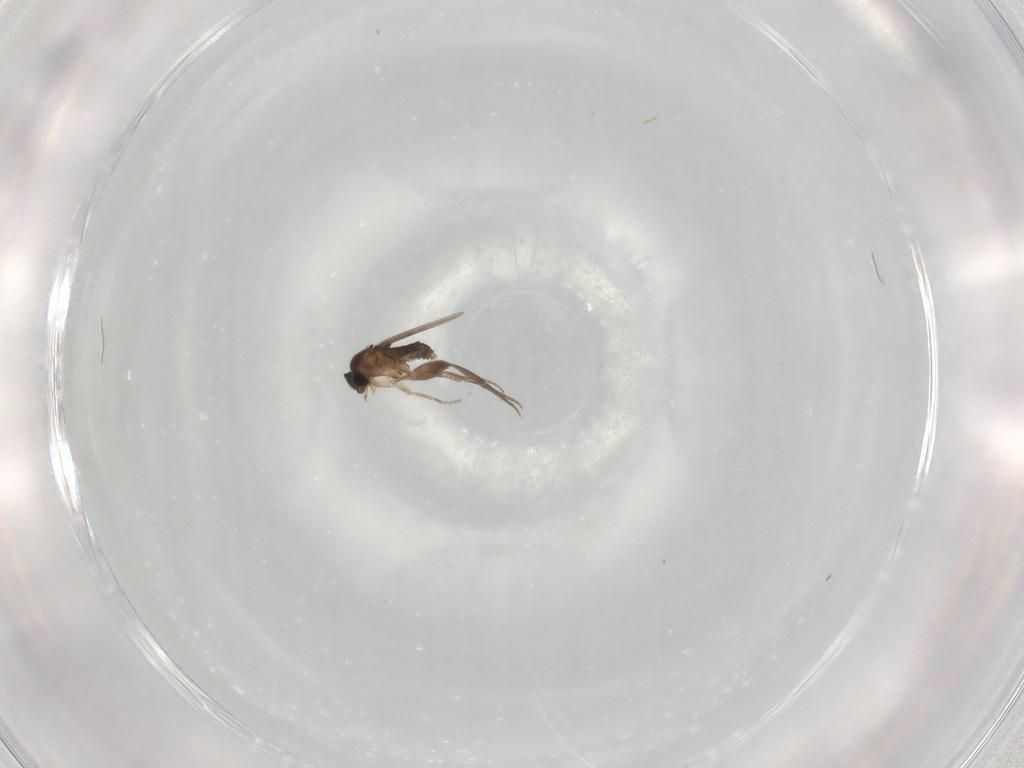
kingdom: Animalia
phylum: Arthropoda
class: Insecta
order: Diptera
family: Phoridae
